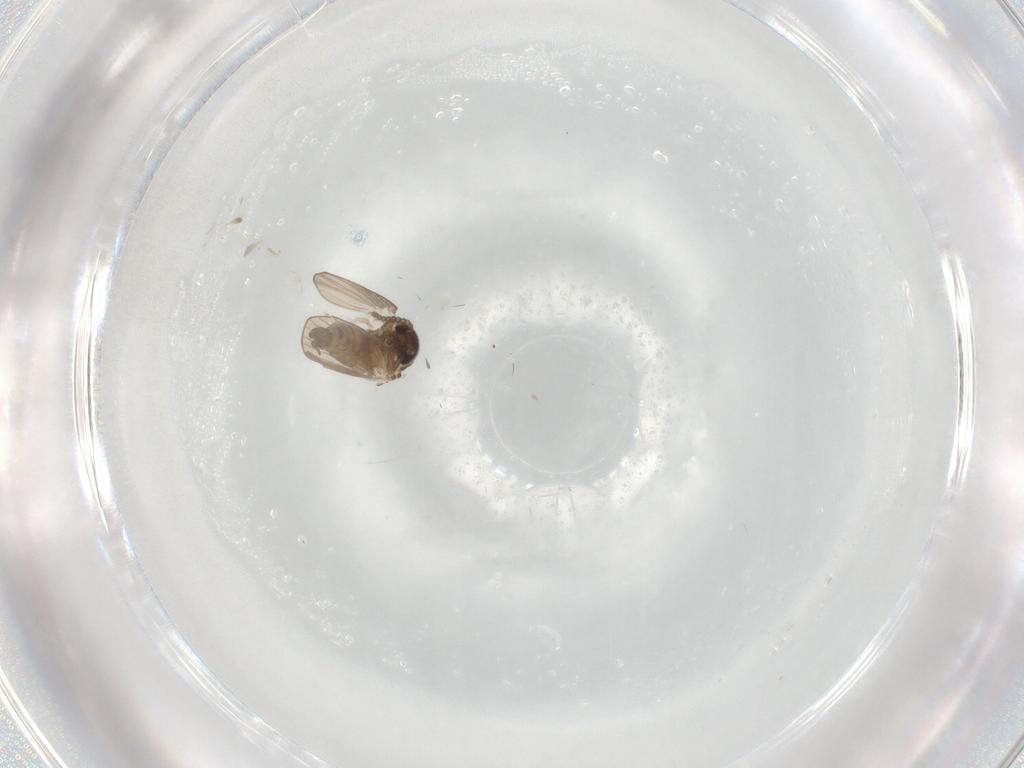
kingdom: Animalia
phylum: Arthropoda
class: Insecta
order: Diptera
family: Psychodidae
